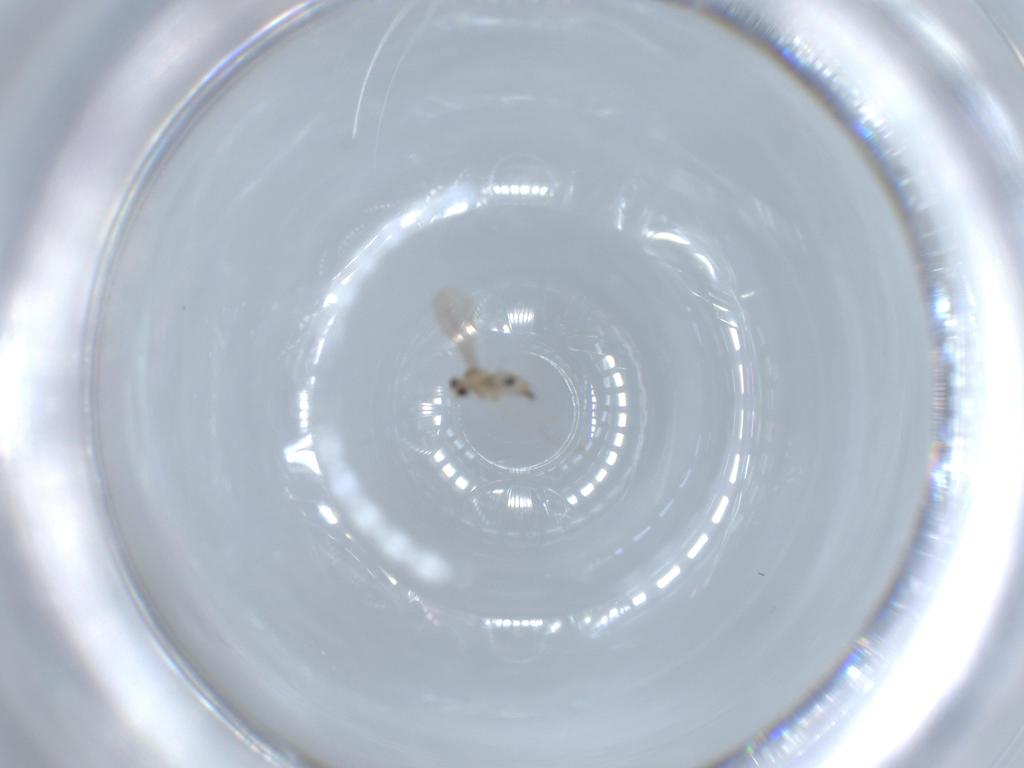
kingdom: Animalia
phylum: Arthropoda
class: Insecta
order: Diptera
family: Cecidomyiidae
